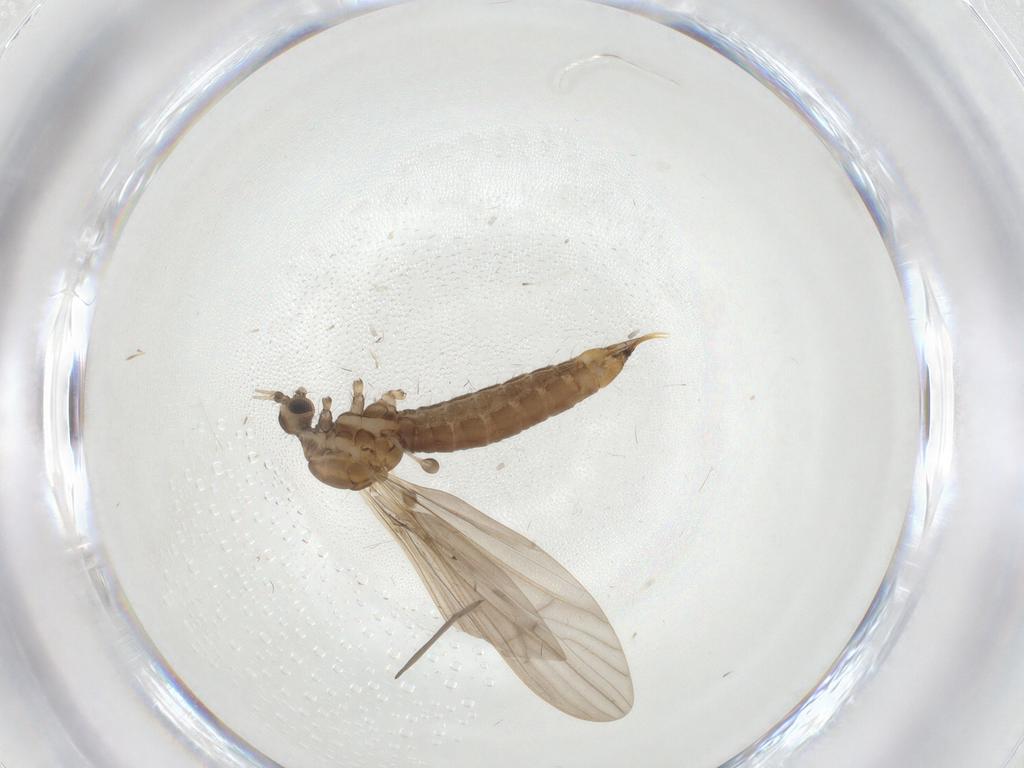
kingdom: Animalia
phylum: Arthropoda
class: Insecta
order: Diptera
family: Limoniidae
